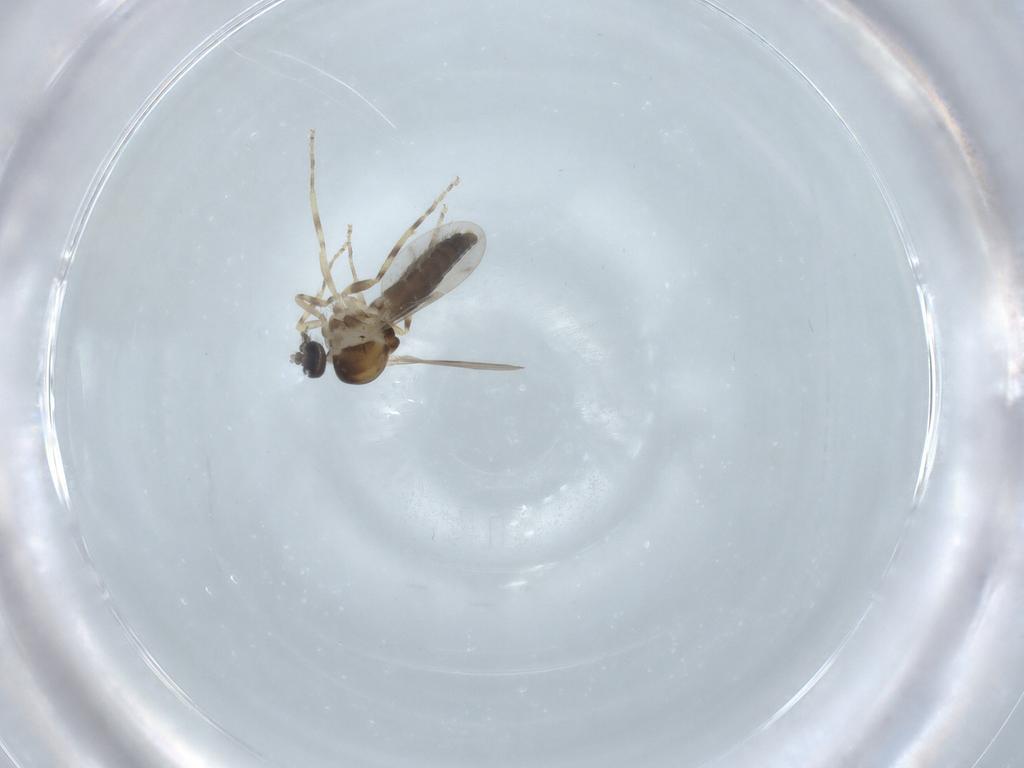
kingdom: Animalia
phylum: Arthropoda
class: Insecta
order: Diptera
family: Ceratopogonidae
